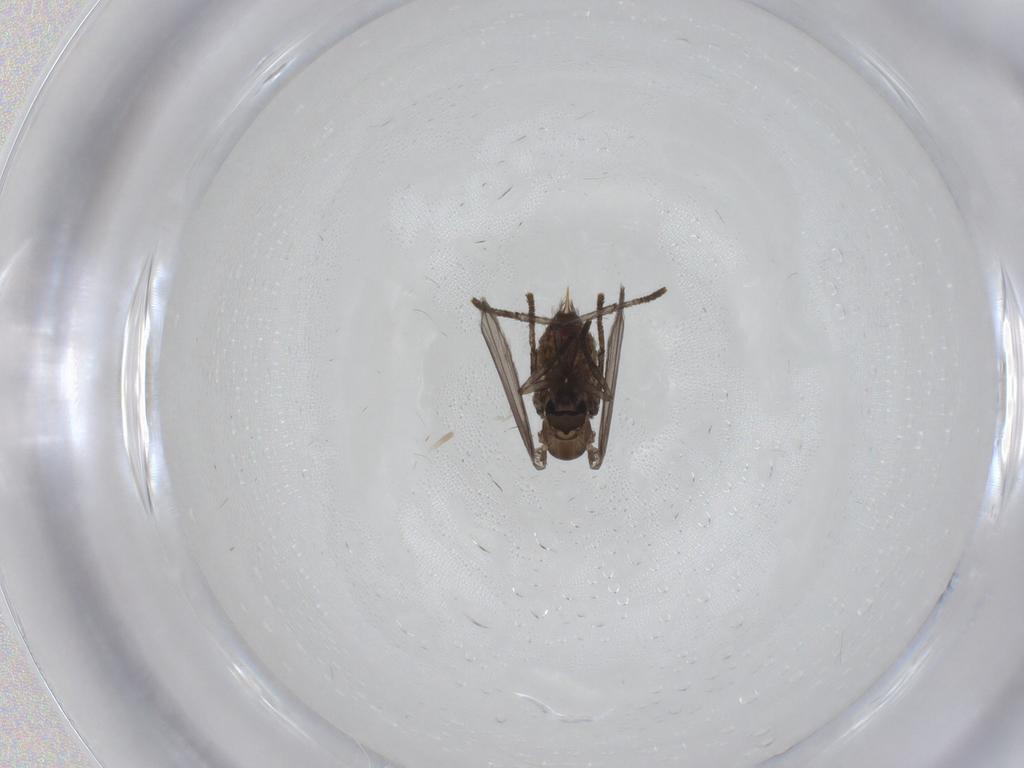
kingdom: Animalia
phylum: Arthropoda
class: Insecta
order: Diptera
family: Psychodidae
